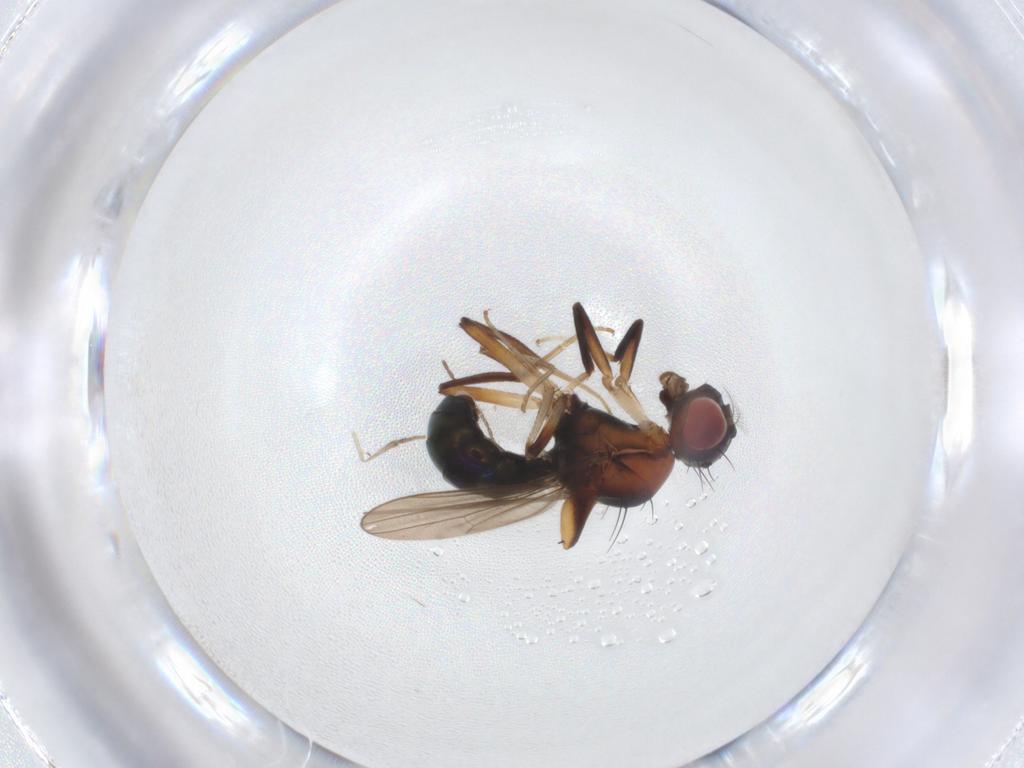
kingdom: Animalia
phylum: Arthropoda
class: Insecta
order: Diptera
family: Drosophilidae
